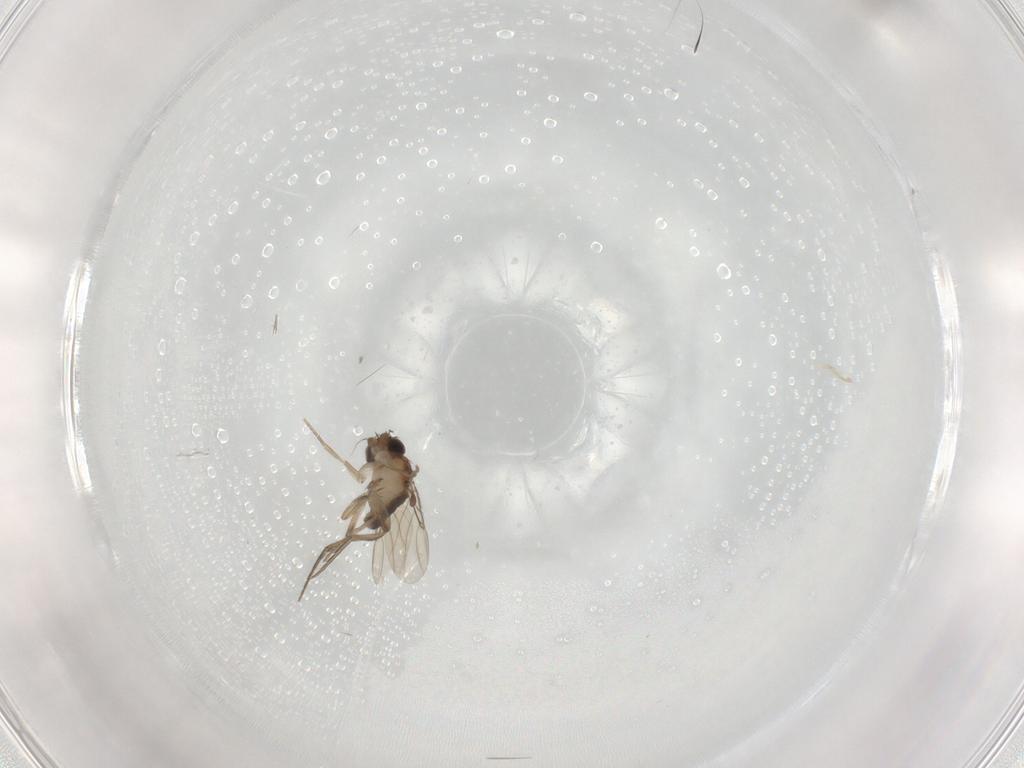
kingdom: Animalia
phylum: Arthropoda
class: Insecta
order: Diptera
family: Phoridae
